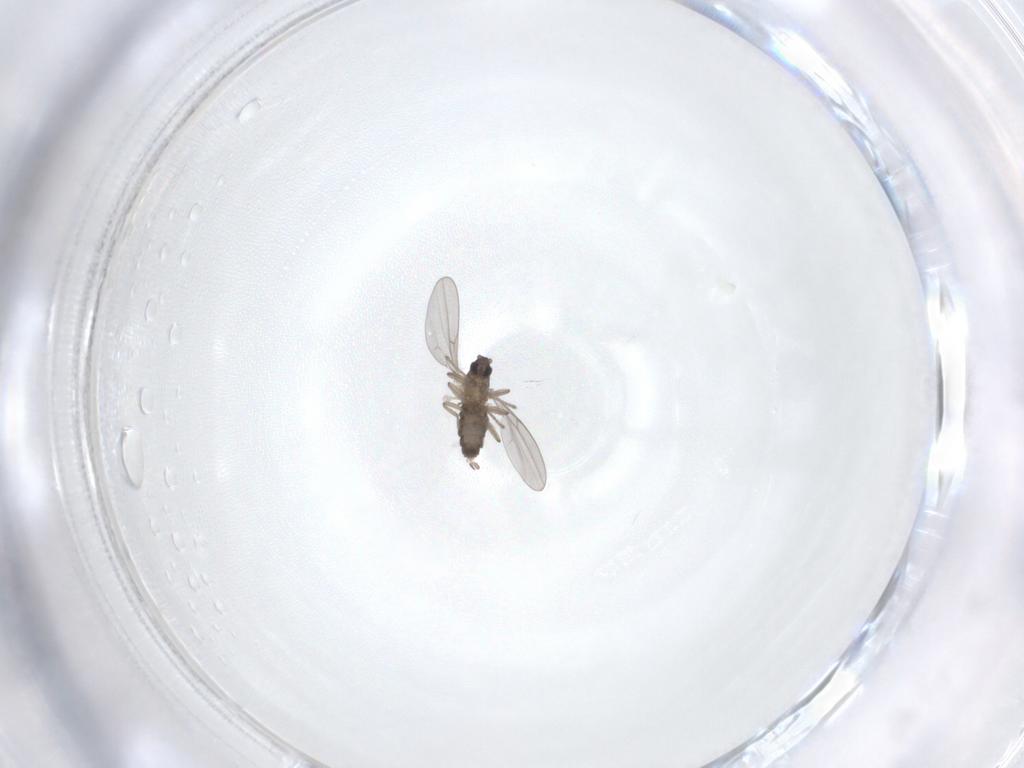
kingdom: Animalia
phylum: Arthropoda
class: Insecta
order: Diptera
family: Cecidomyiidae
